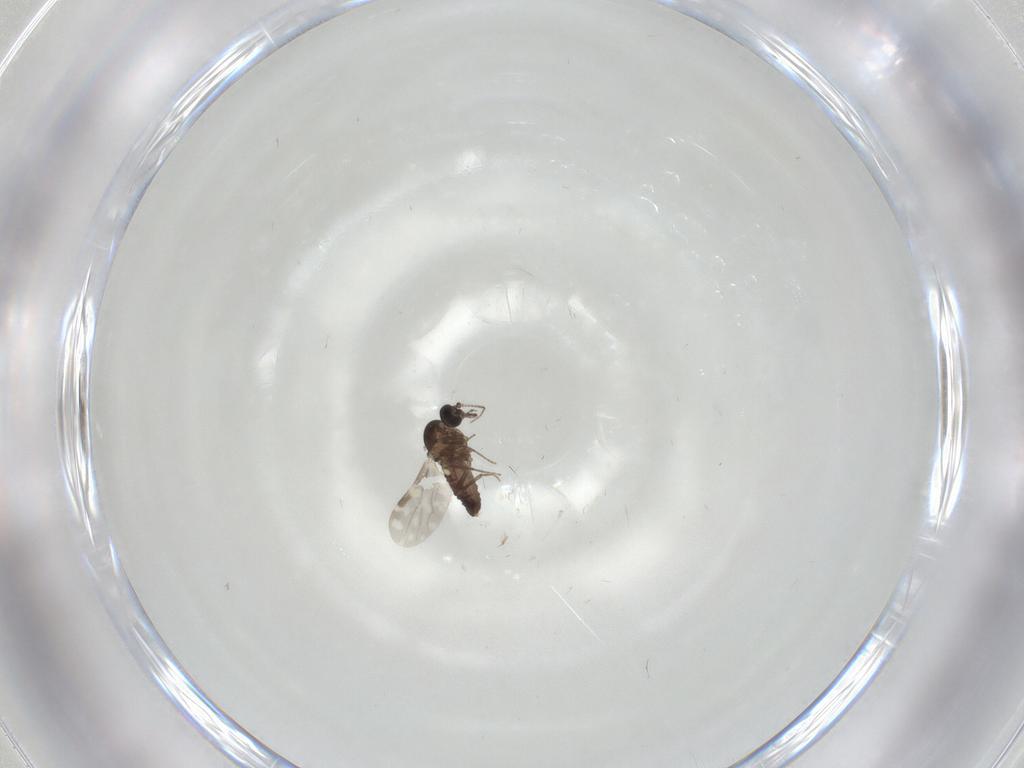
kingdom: Animalia
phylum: Arthropoda
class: Insecta
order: Diptera
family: Ceratopogonidae
